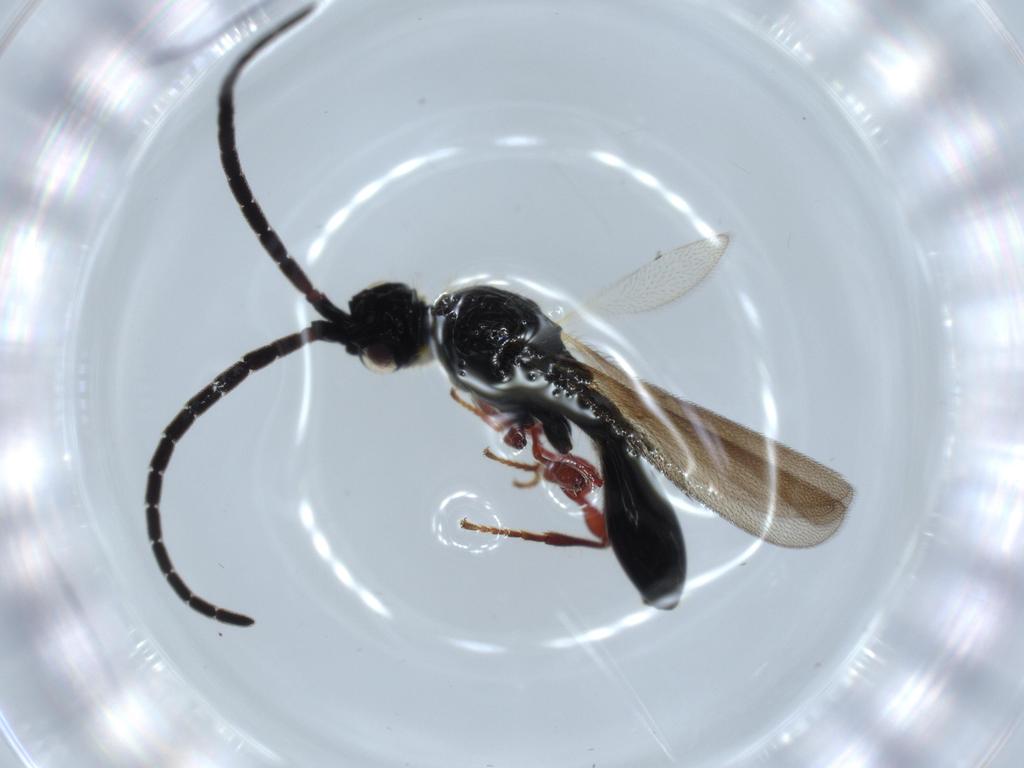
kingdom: Animalia
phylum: Arthropoda
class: Insecta
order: Hymenoptera
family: Diapriidae
